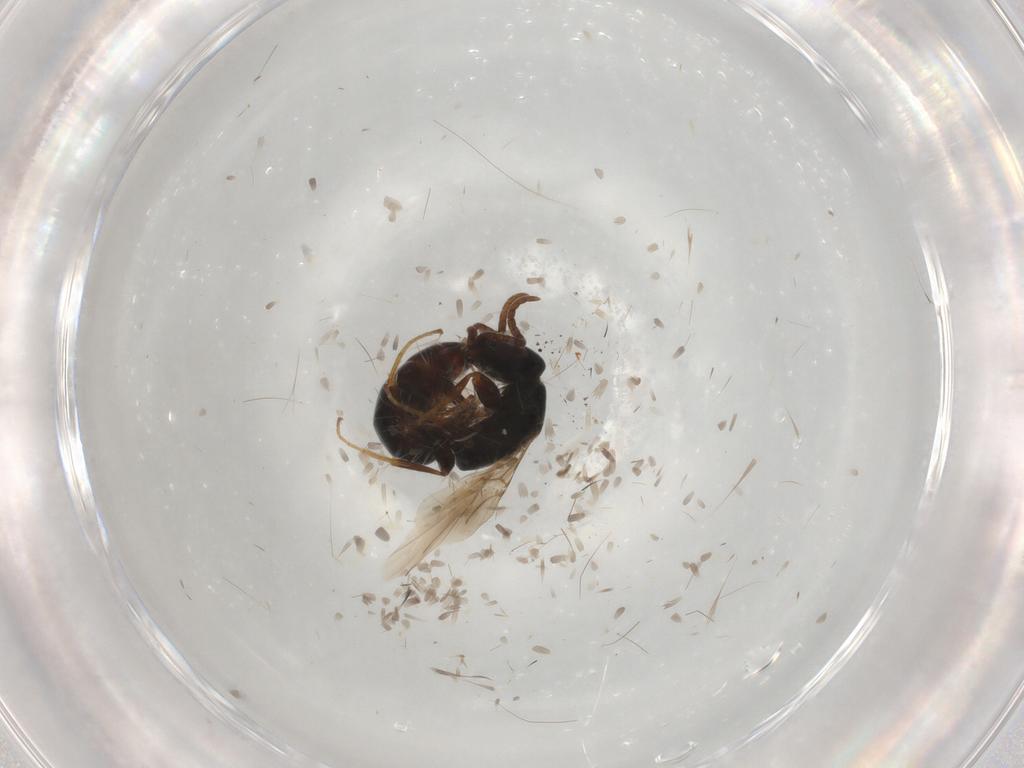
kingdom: Animalia
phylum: Arthropoda
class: Insecta
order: Hymenoptera
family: Bethylidae
